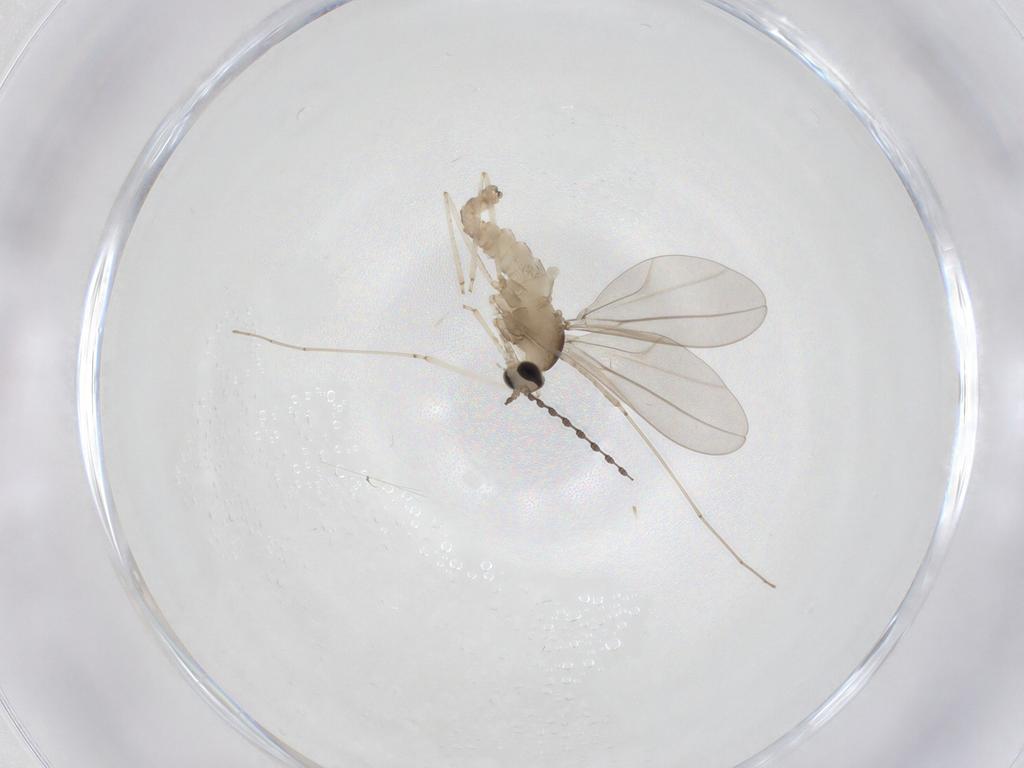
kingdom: Animalia
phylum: Arthropoda
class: Insecta
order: Diptera
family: Cecidomyiidae
